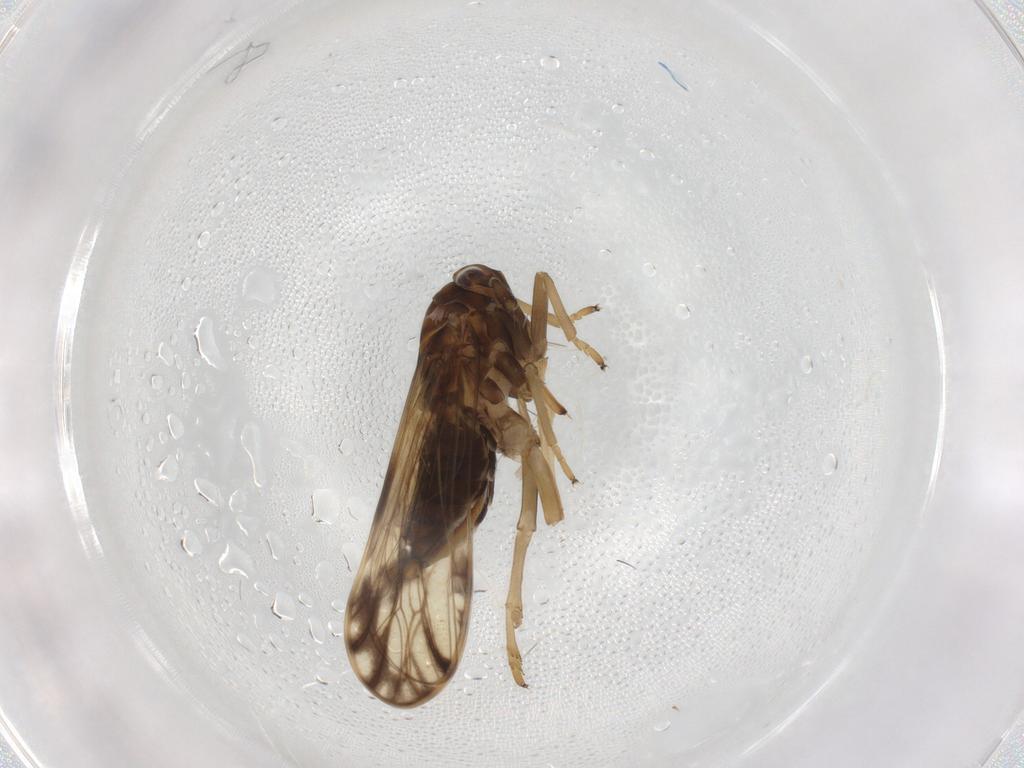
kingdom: Animalia
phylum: Arthropoda
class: Insecta
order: Hemiptera
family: Delphacidae
